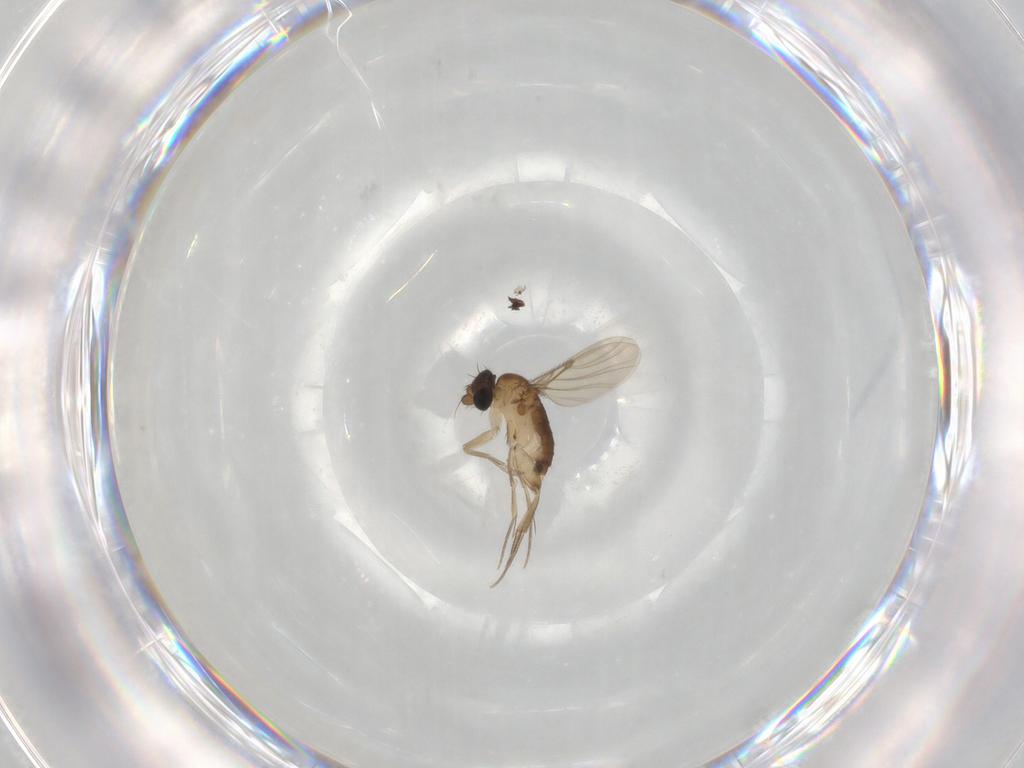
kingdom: Animalia
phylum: Arthropoda
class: Insecta
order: Diptera
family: Phoridae
